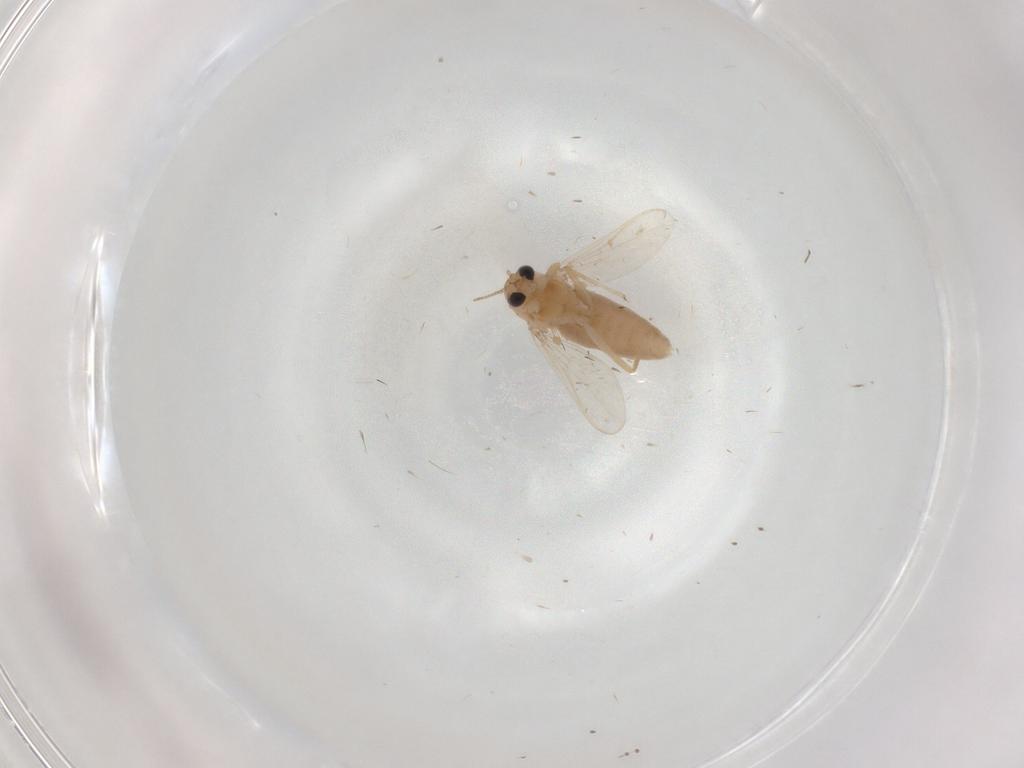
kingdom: Animalia
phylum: Arthropoda
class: Insecta
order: Diptera
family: Chironomidae
